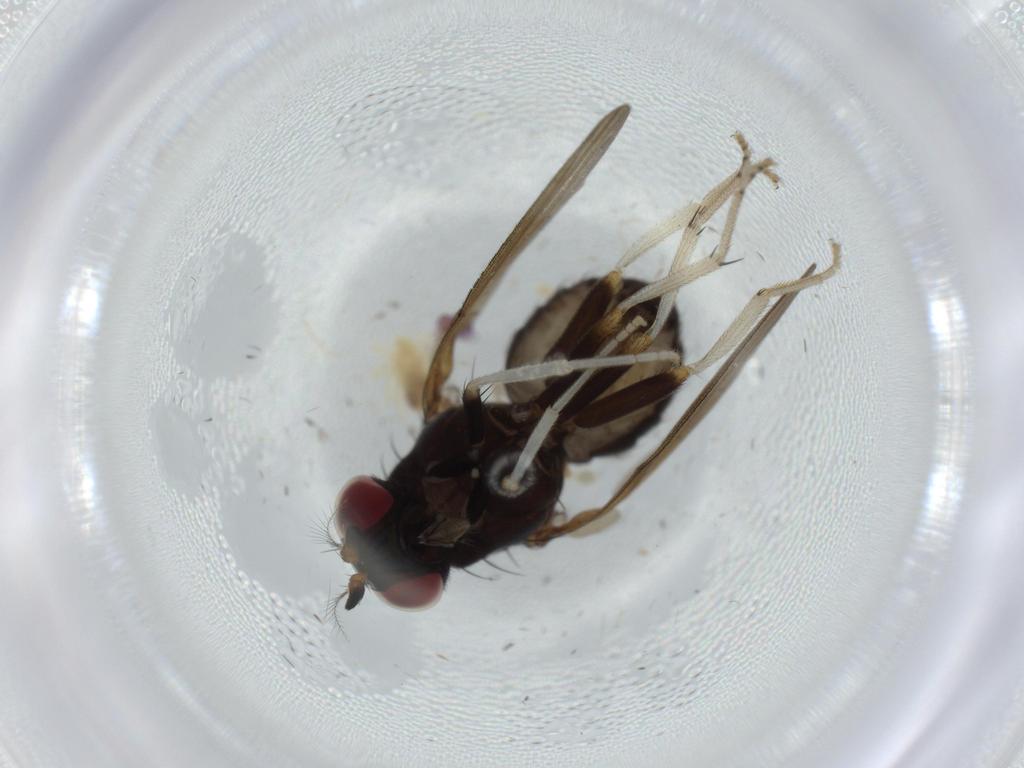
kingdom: Animalia
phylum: Arthropoda
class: Insecta
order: Diptera
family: Lauxaniidae
